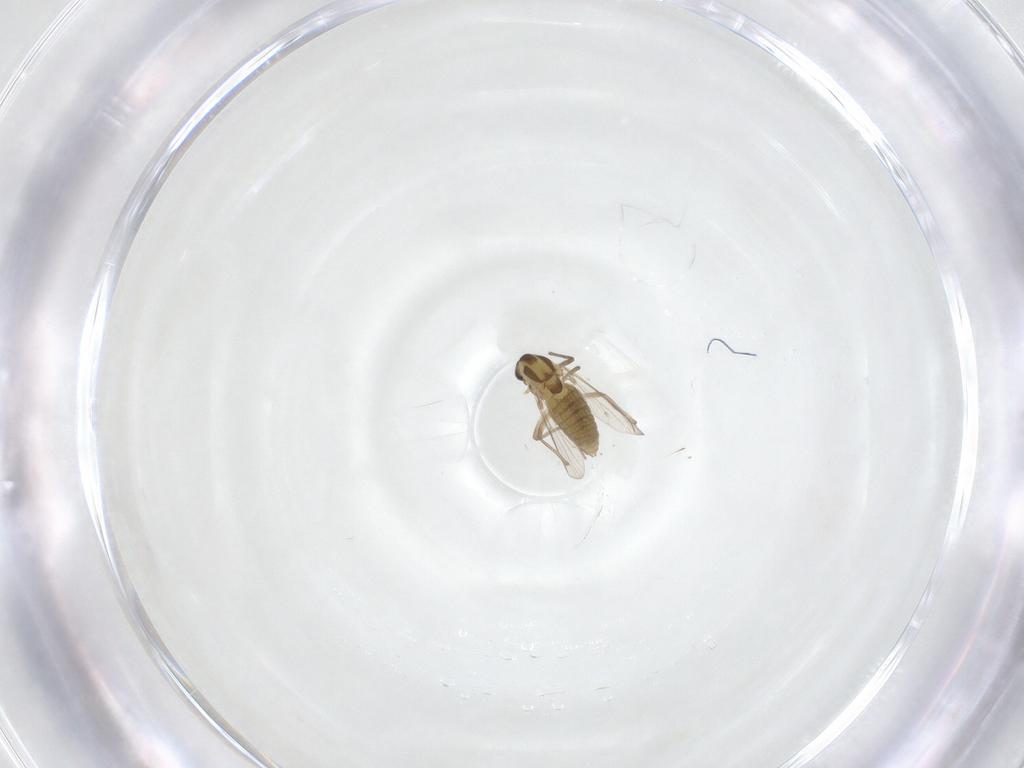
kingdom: Animalia
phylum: Arthropoda
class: Insecta
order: Diptera
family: Chironomidae
